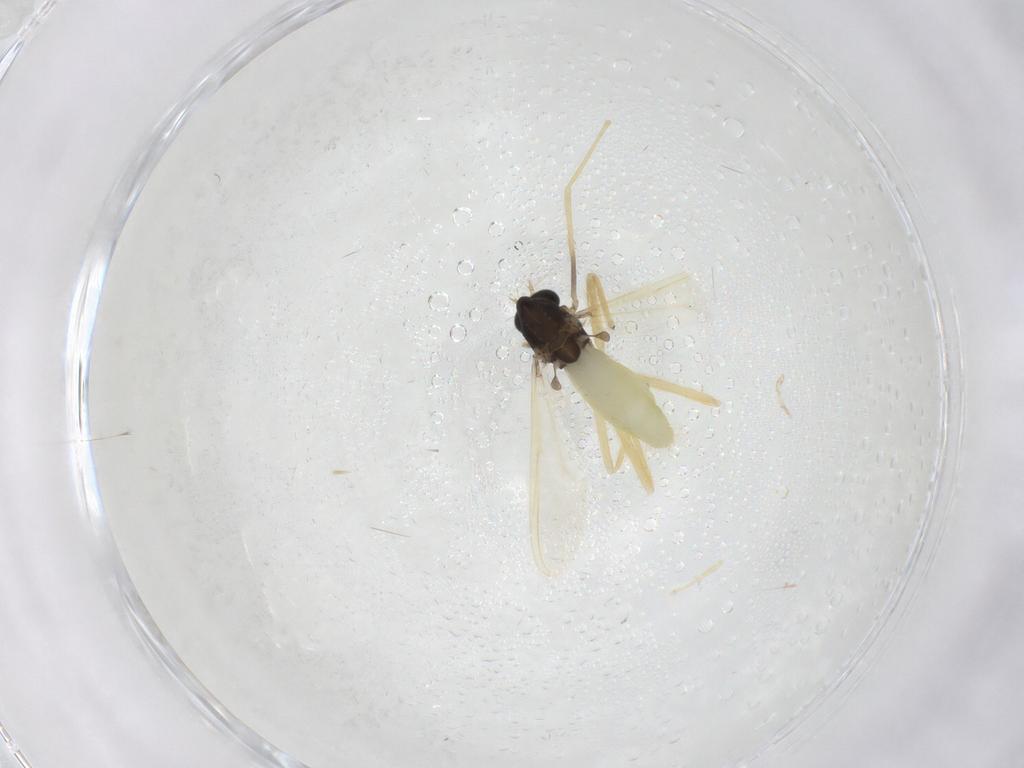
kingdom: Animalia
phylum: Arthropoda
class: Insecta
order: Diptera
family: Chironomidae
